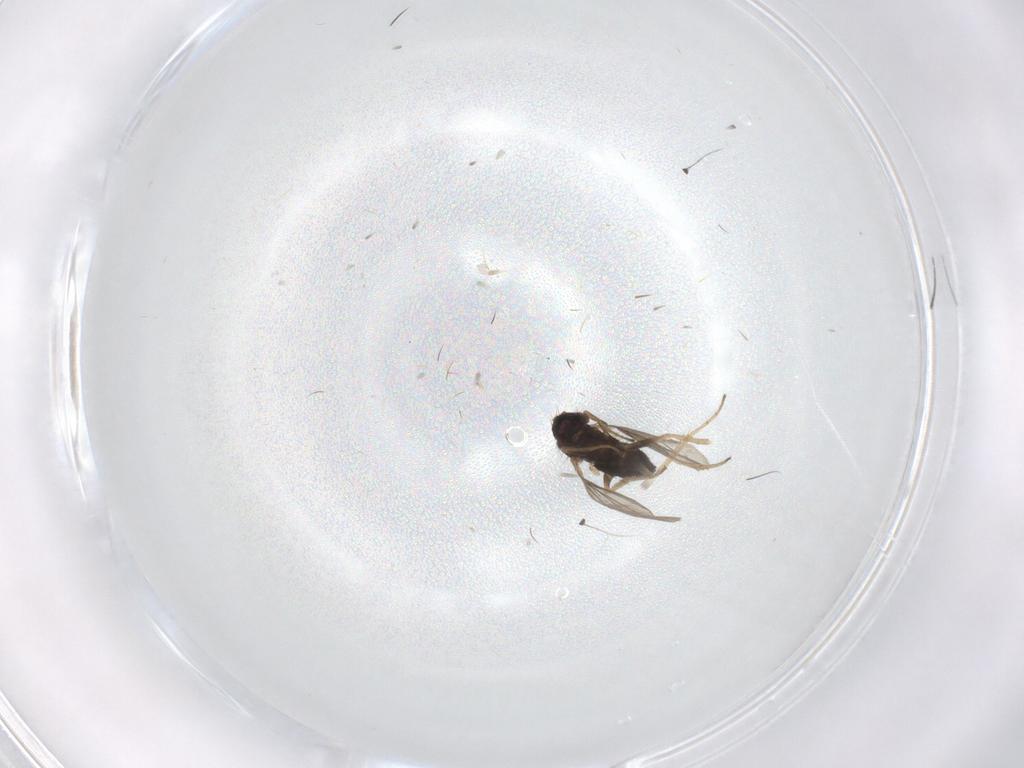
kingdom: Animalia
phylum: Arthropoda
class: Insecta
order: Diptera
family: Dolichopodidae
